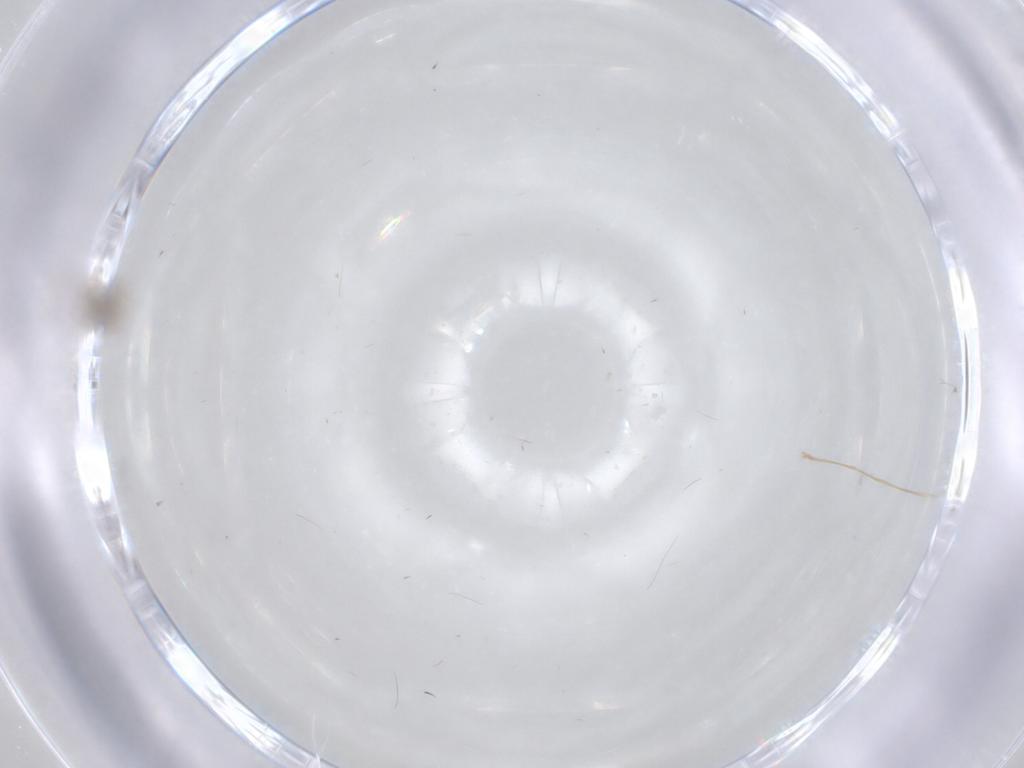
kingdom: Animalia
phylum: Arthropoda
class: Insecta
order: Diptera
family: Cecidomyiidae
